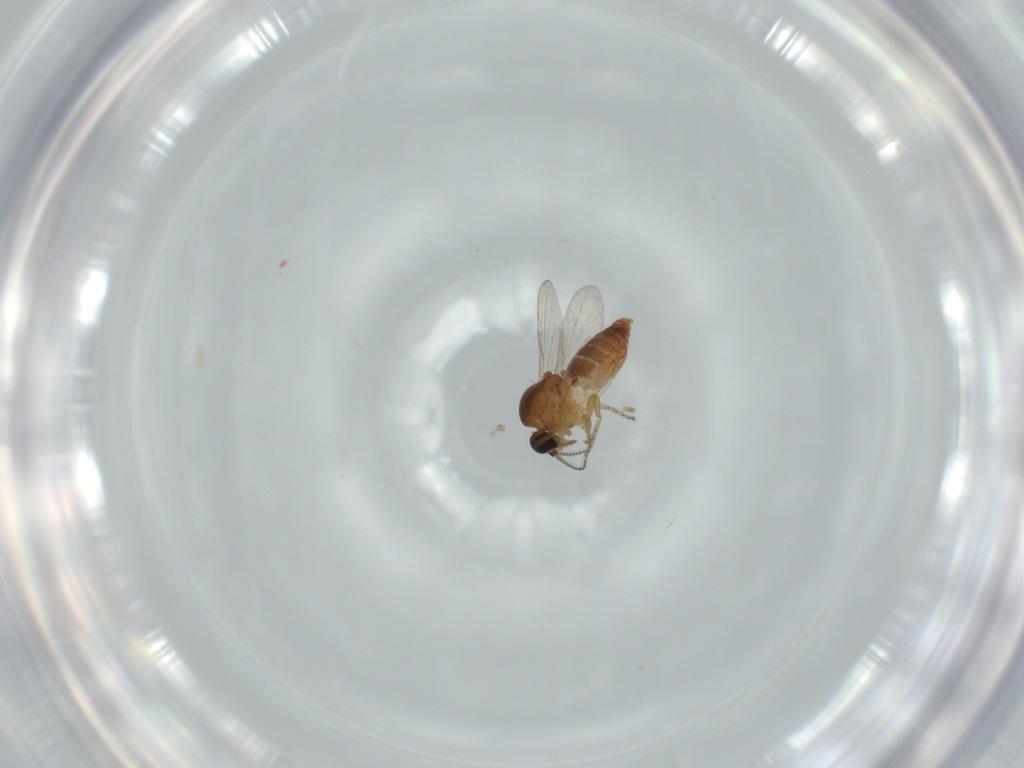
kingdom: Animalia
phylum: Arthropoda
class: Insecta
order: Diptera
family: Ceratopogonidae
